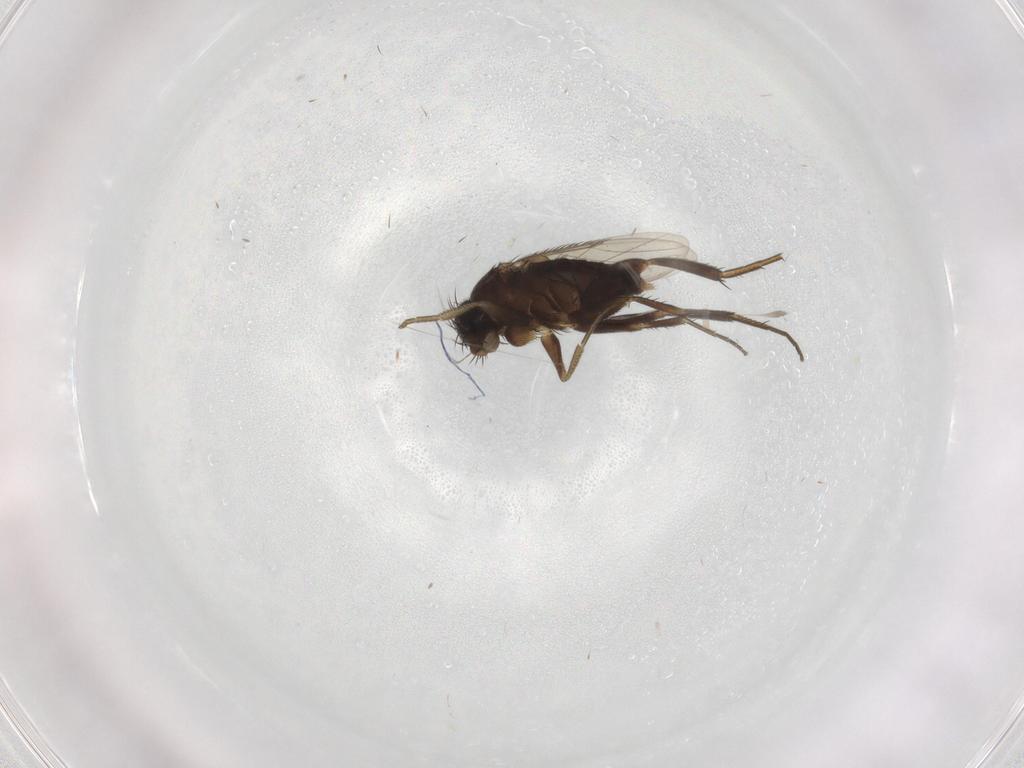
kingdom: Animalia
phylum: Arthropoda
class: Insecta
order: Diptera
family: Phoridae
